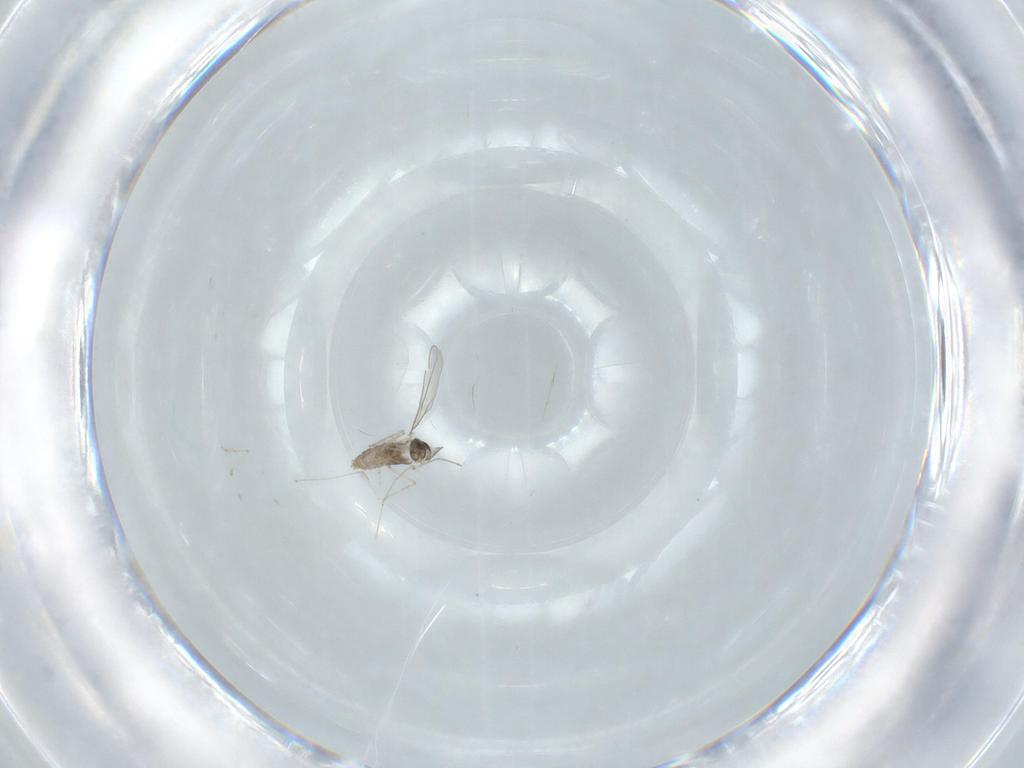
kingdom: Animalia
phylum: Arthropoda
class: Insecta
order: Diptera
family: Cecidomyiidae
